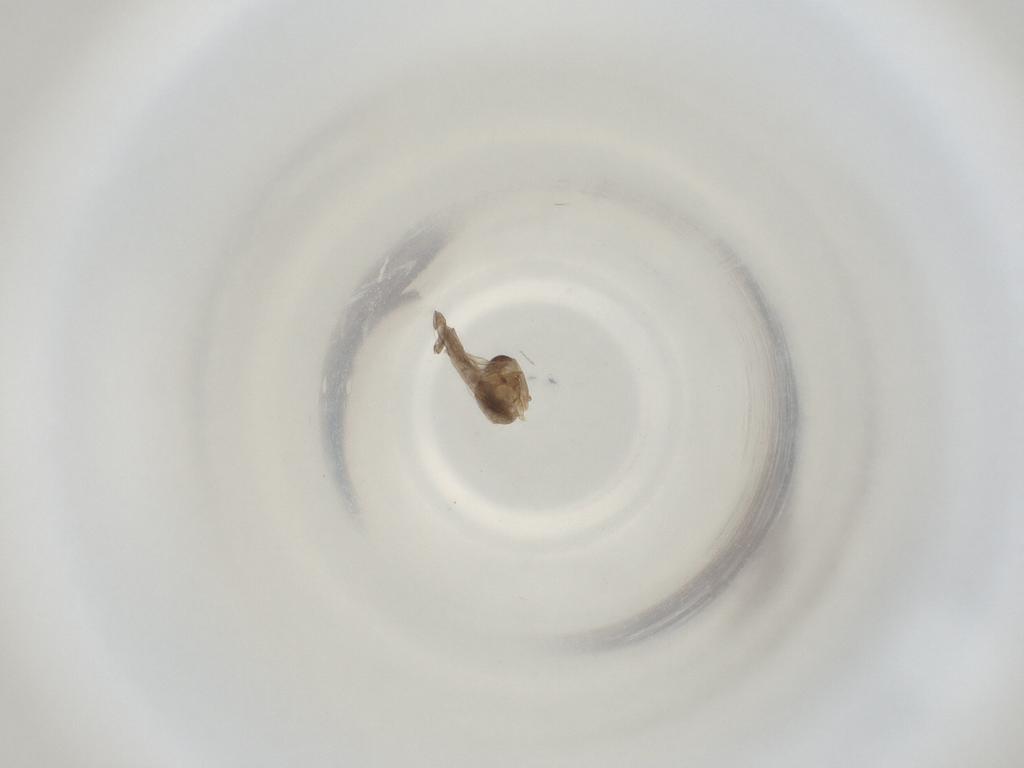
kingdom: Animalia
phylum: Arthropoda
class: Insecta
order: Diptera
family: Cecidomyiidae
